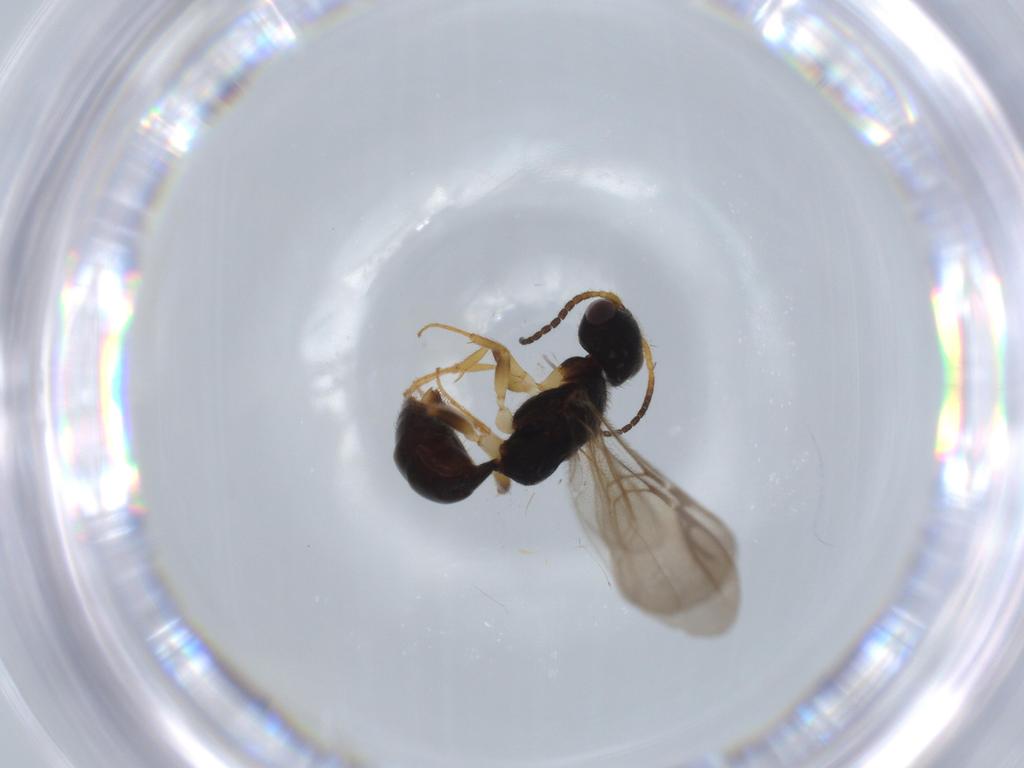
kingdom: Animalia
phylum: Arthropoda
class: Insecta
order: Hymenoptera
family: Bethylidae
